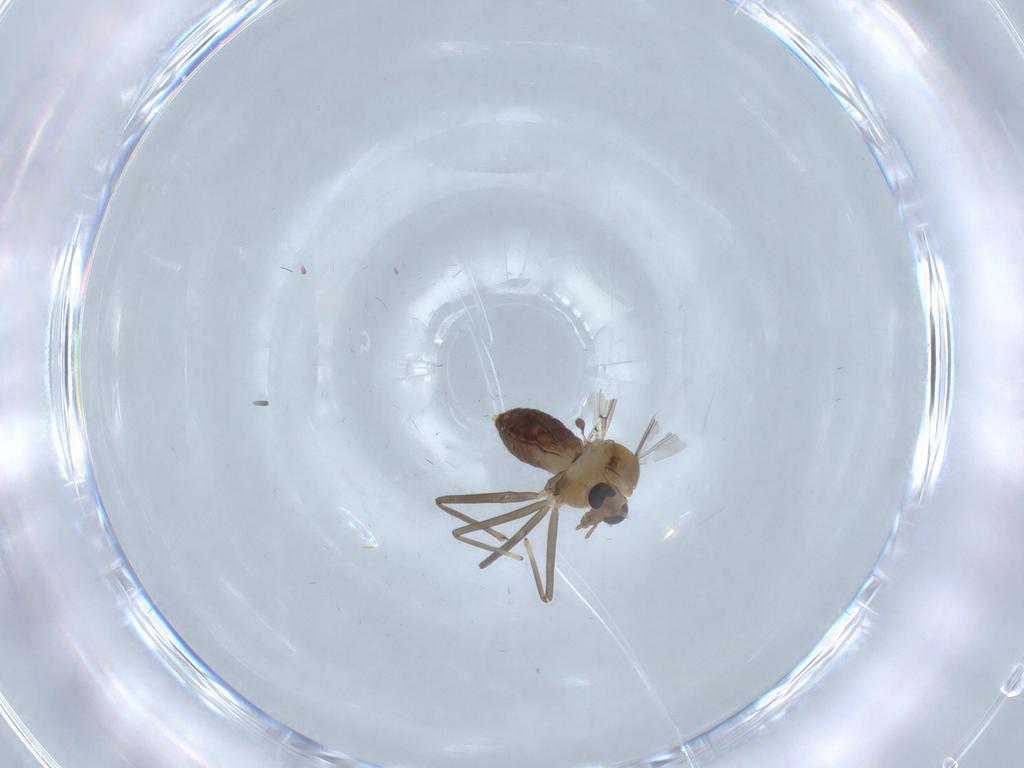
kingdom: Animalia
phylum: Arthropoda
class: Insecta
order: Diptera
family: Chironomidae
